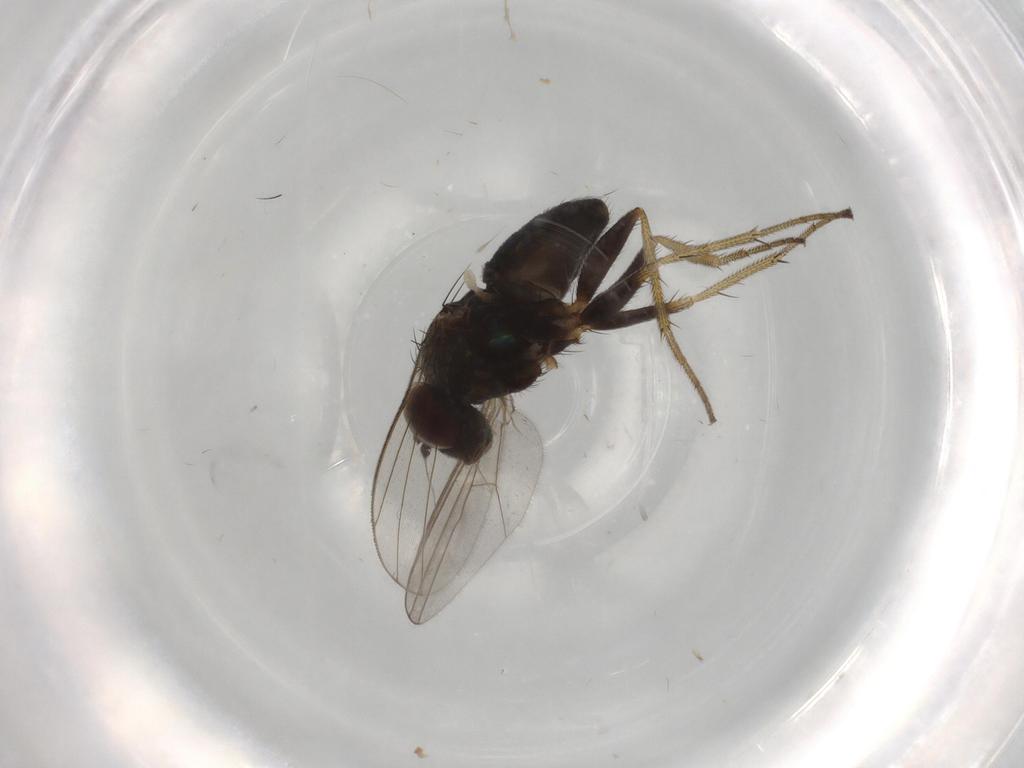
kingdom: Animalia
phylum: Arthropoda
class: Insecta
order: Diptera
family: Dolichopodidae
